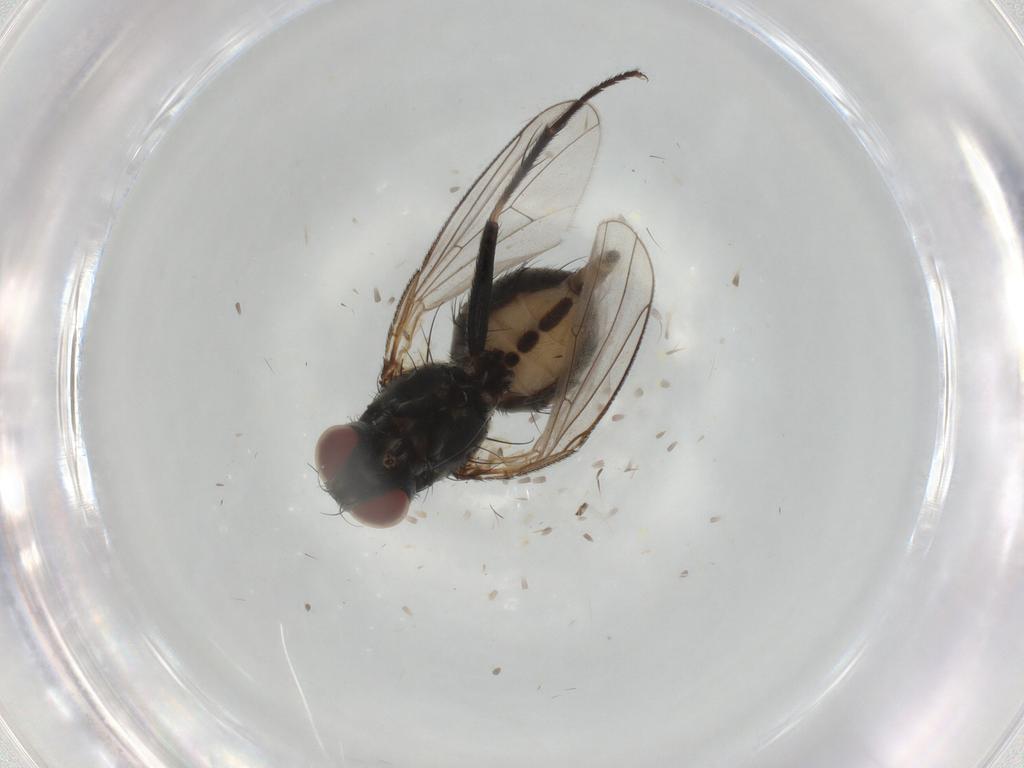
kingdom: Animalia
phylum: Arthropoda
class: Insecta
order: Diptera
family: Muscidae
